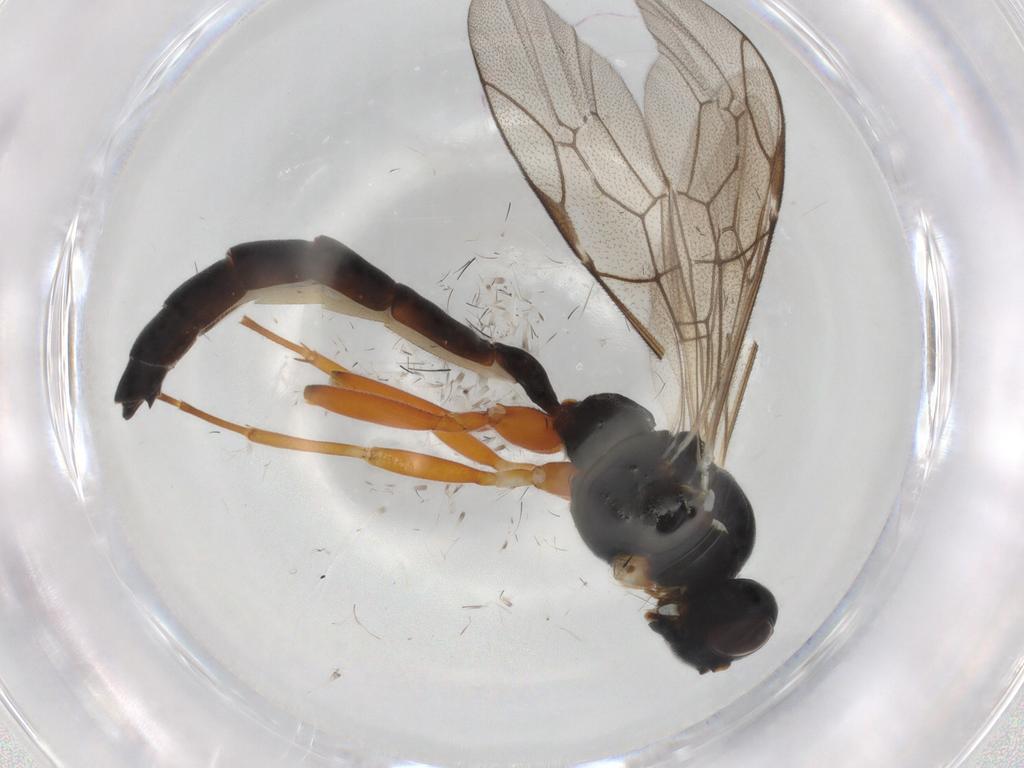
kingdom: Animalia
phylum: Arthropoda
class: Insecta
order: Hymenoptera
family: Ichneumonidae
